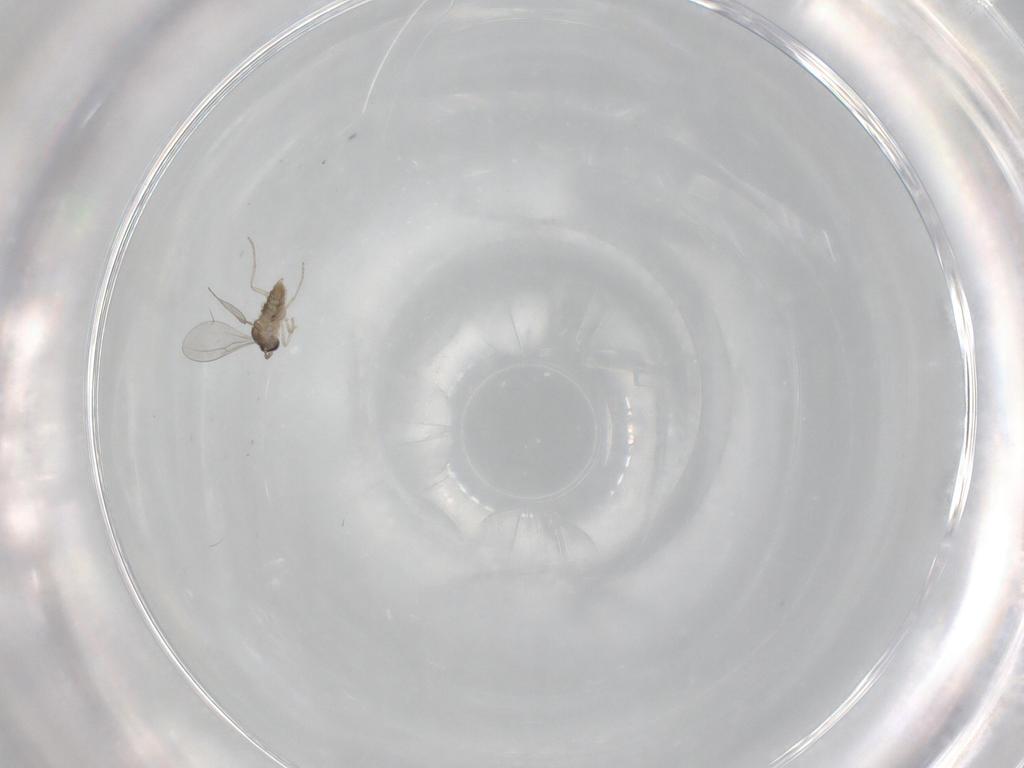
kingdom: Animalia
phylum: Arthropoda
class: Insecta
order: Diptera
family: Cecidomyiidae
